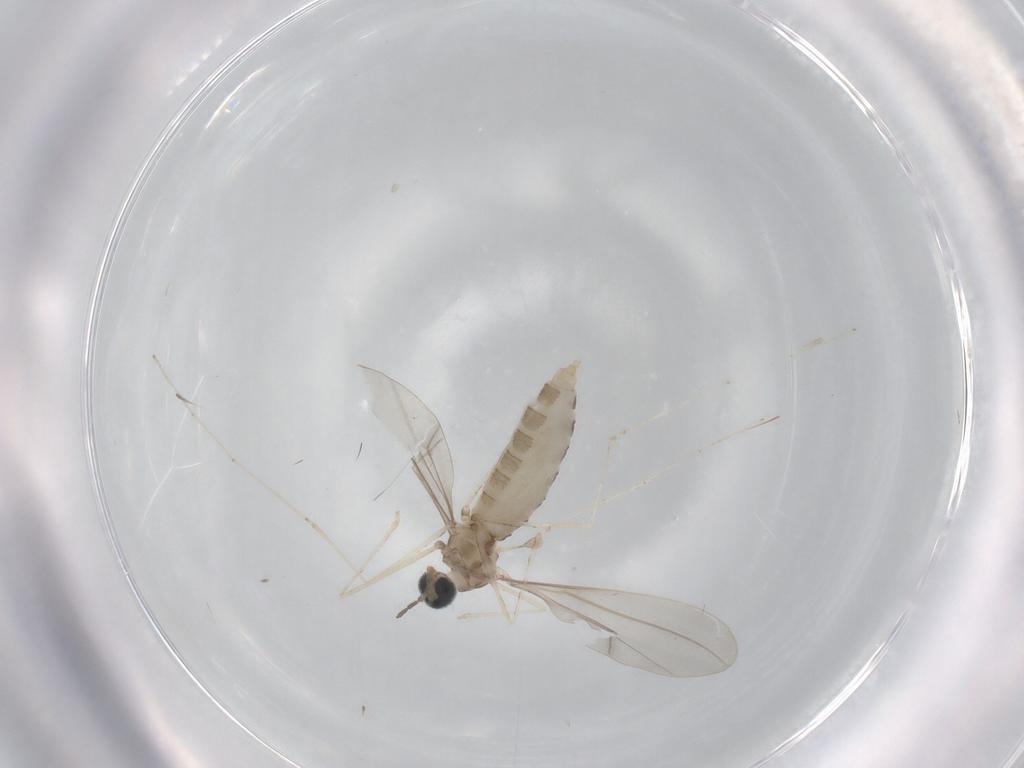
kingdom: Animalia
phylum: Arthropoda
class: Insecta
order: Diptera
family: Cecidomyiidae
